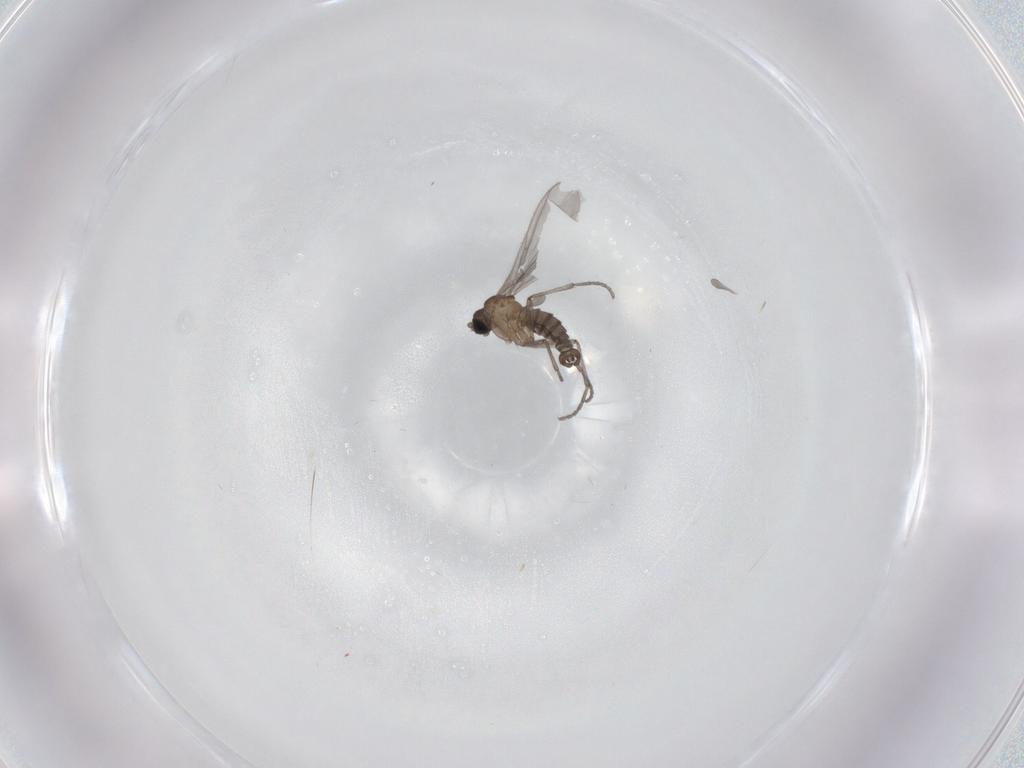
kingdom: Animalia
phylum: Arthropoda
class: Insecta
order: Diptera
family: Sciaridae
